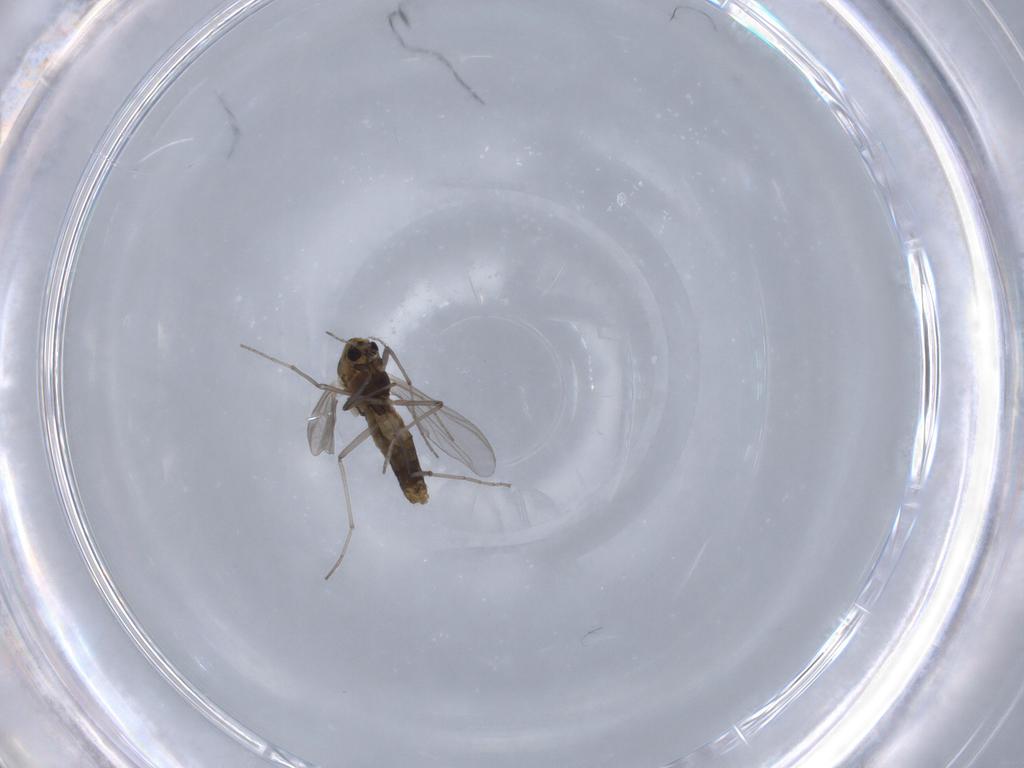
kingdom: Animalia
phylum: Arthropoda
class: Insecta
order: Diptera
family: Chironomidae
